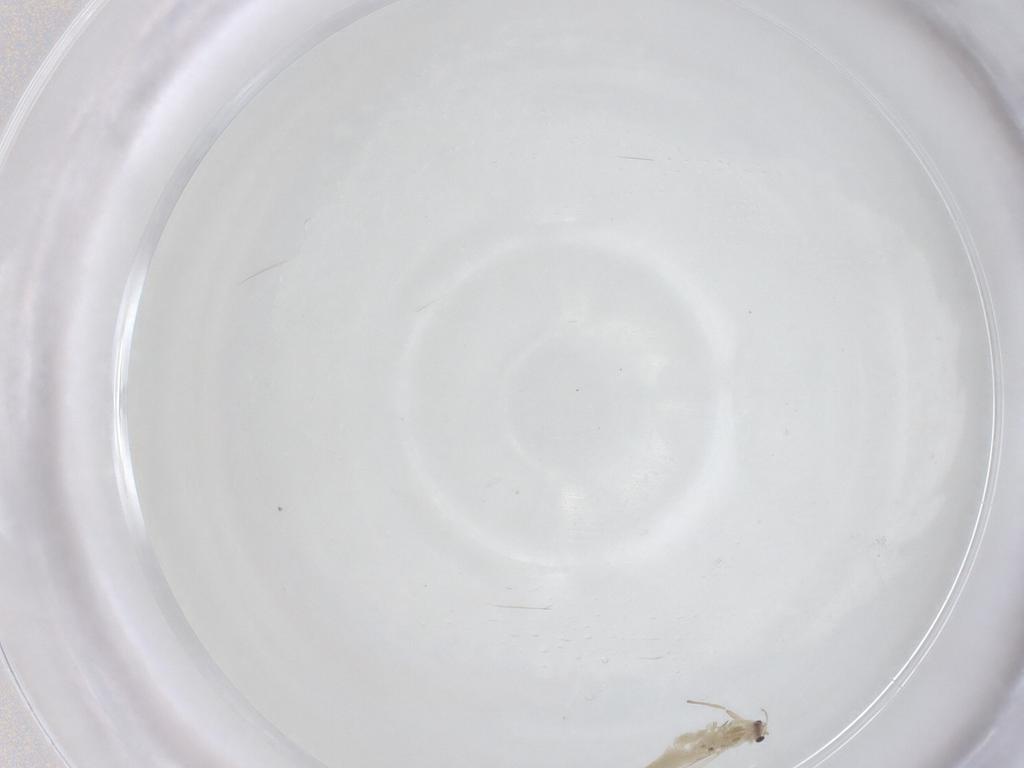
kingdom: Animalia
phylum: Arthropoda
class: Insecta
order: Diptera
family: Chironomidae
